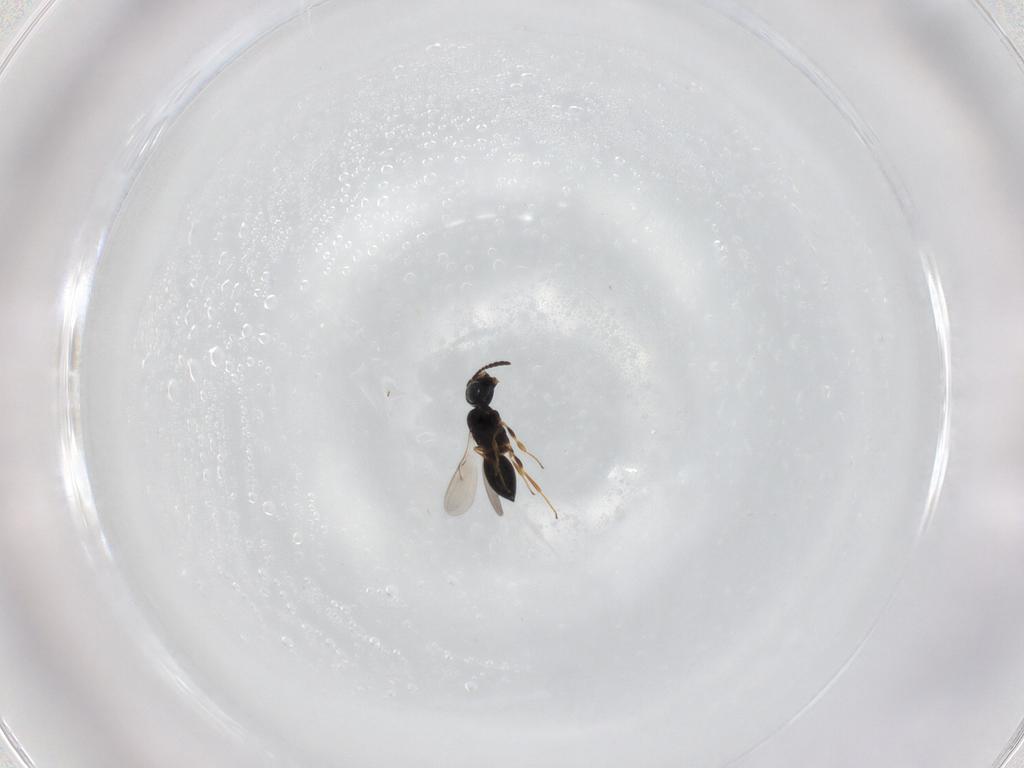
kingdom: Animalia
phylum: Arthropoda
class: Insecta
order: Hymenoptera
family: Scelionidae
